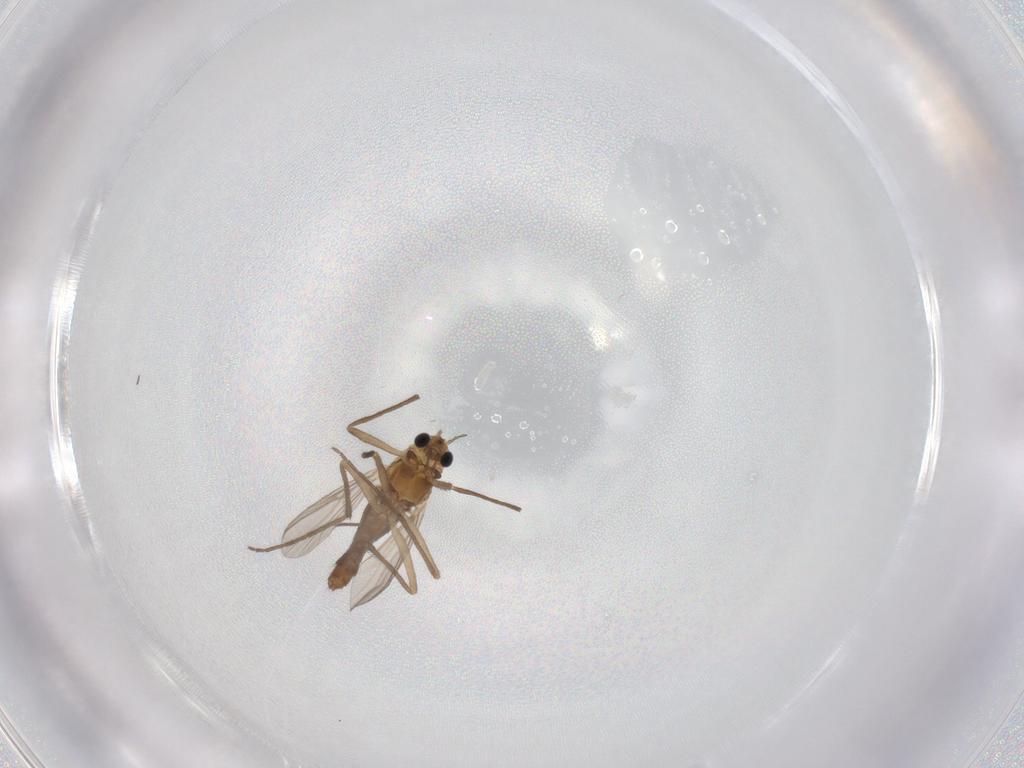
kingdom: Animalia
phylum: Arthropoda
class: Insecta
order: Diptera
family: Chironomidae
